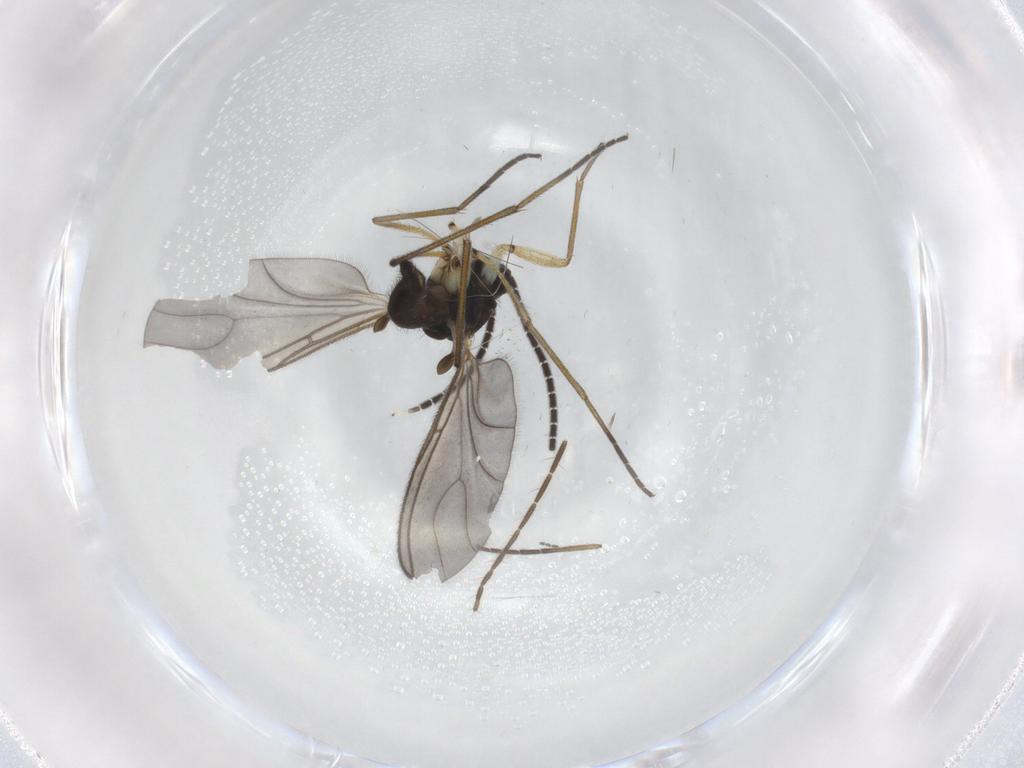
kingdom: Animalia
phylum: Arthropoda
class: Insecta
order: Diptera
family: Sciaridae
